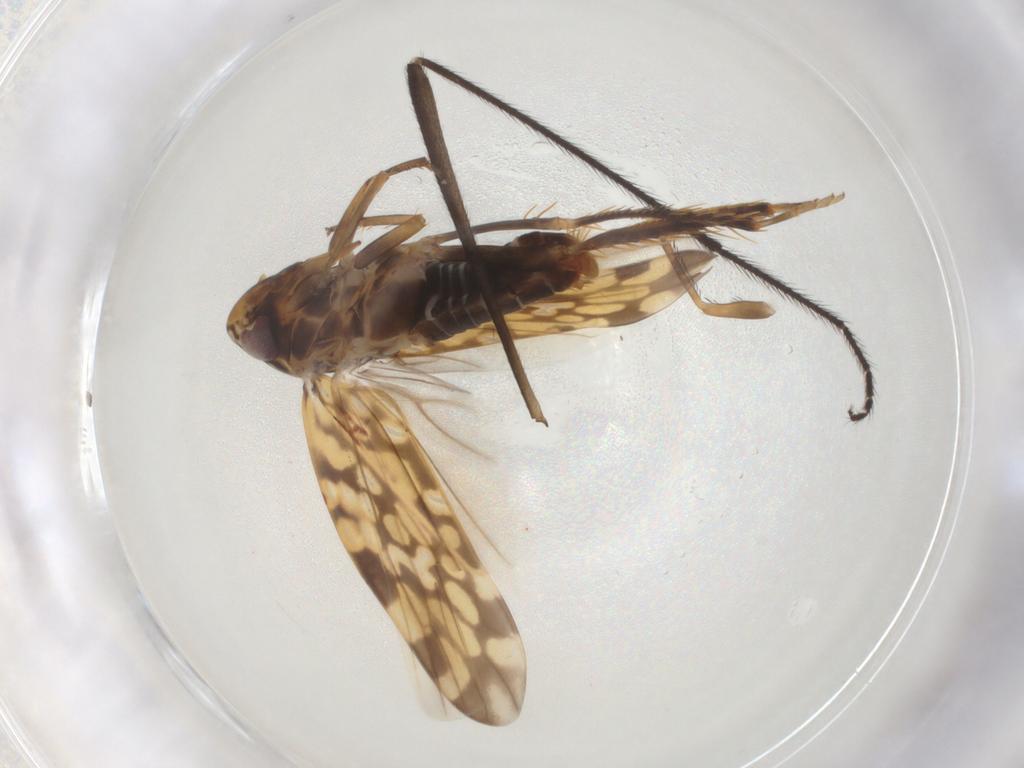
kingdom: Animalia
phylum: Arthropoda
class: Insecta
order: Hemiptera
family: Cicadellidae
